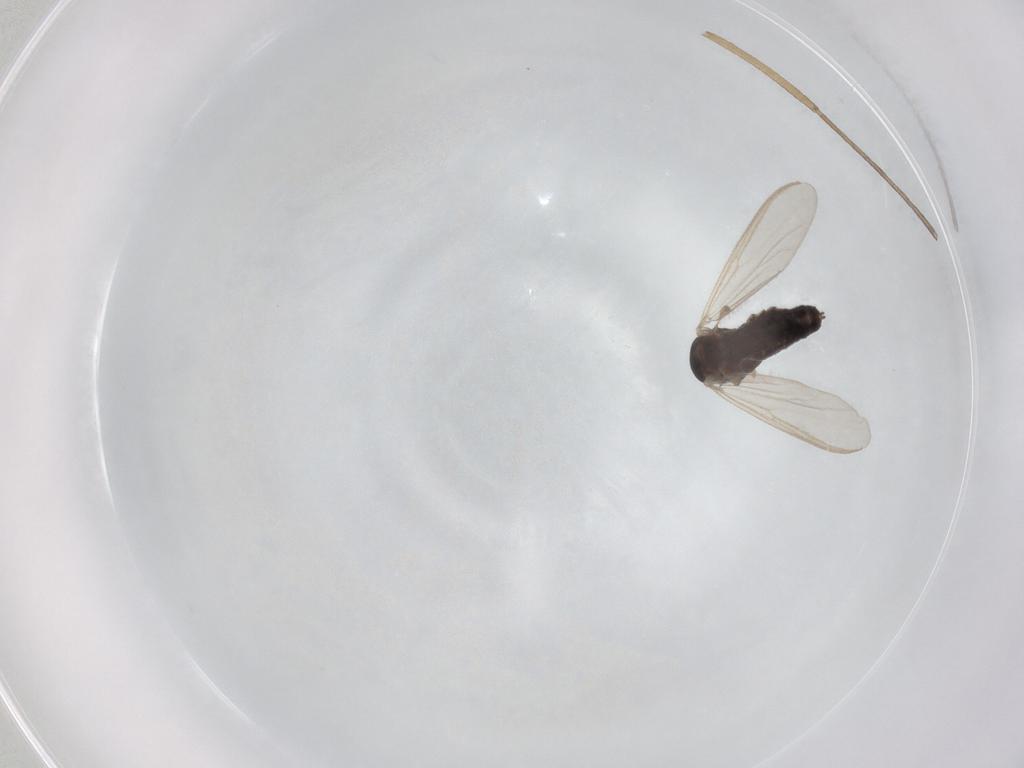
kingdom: Animalia
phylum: Arthropoda
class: Insecta
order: Diptera
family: Chironomidae
